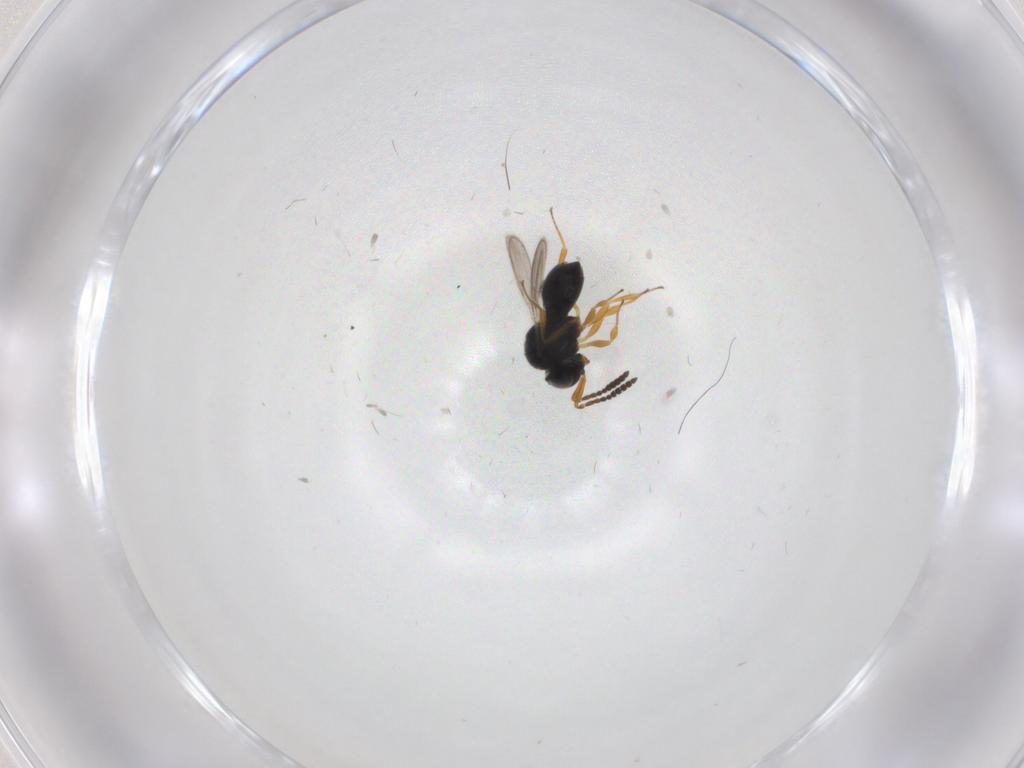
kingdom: Animalia
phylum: Arthropoda
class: Insecta
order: Hymenoptera
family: Scelionidae
